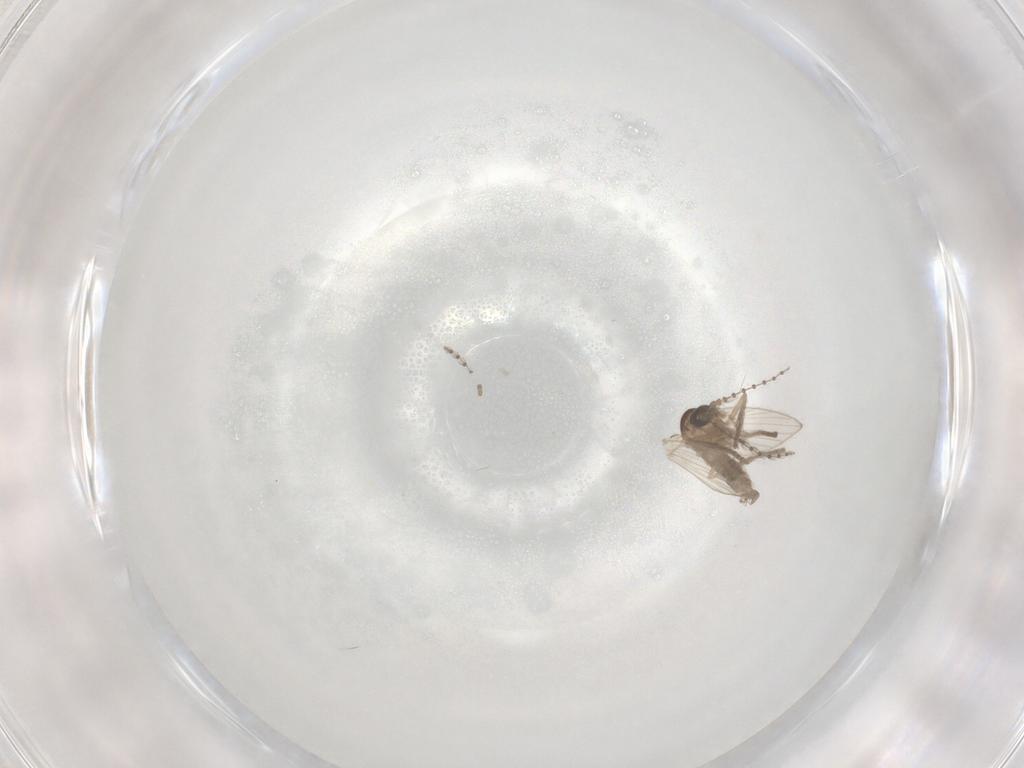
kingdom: Animalia
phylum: Arthropoda
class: Insecta
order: Diptera
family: Psychodidae
